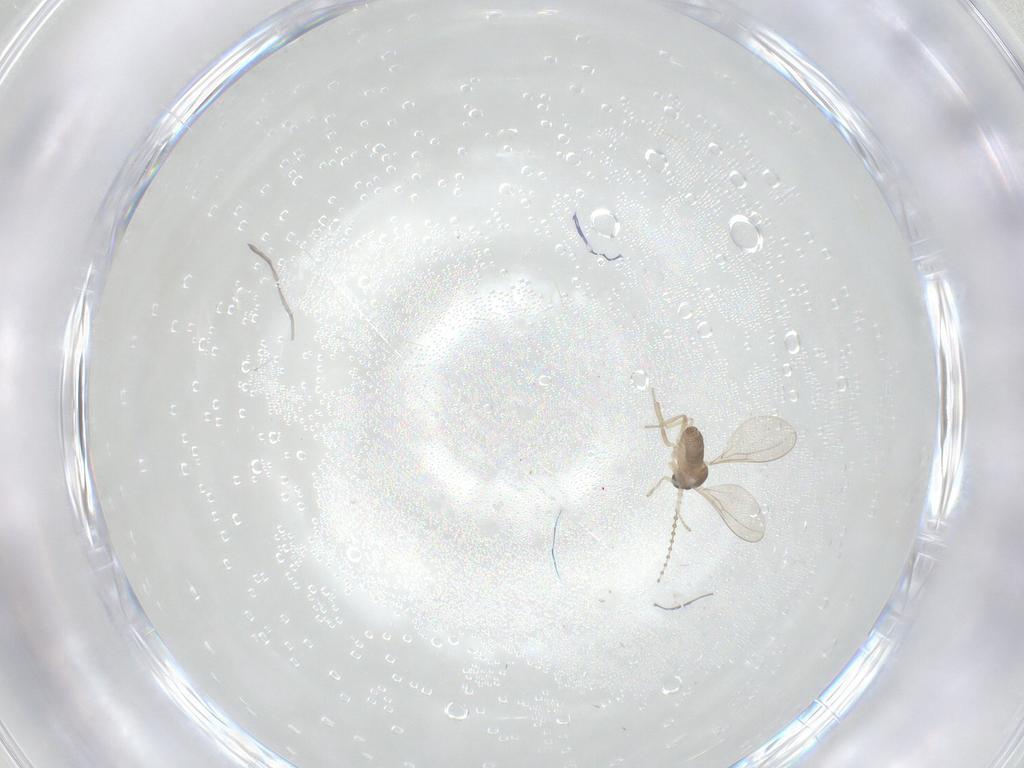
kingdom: Animalia
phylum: Arthropoda
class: Insecta
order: Diptera
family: Cecidomyiidae
